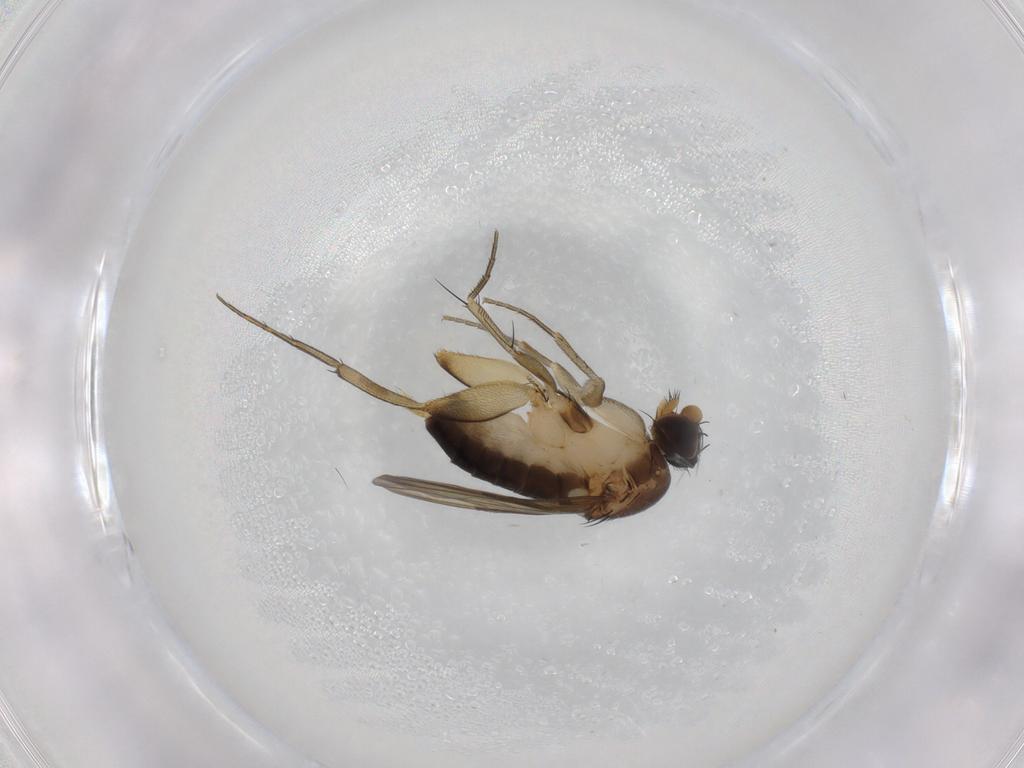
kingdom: Animalia
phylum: Arthropoda
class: Insecta
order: Diptera
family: Phoridae
